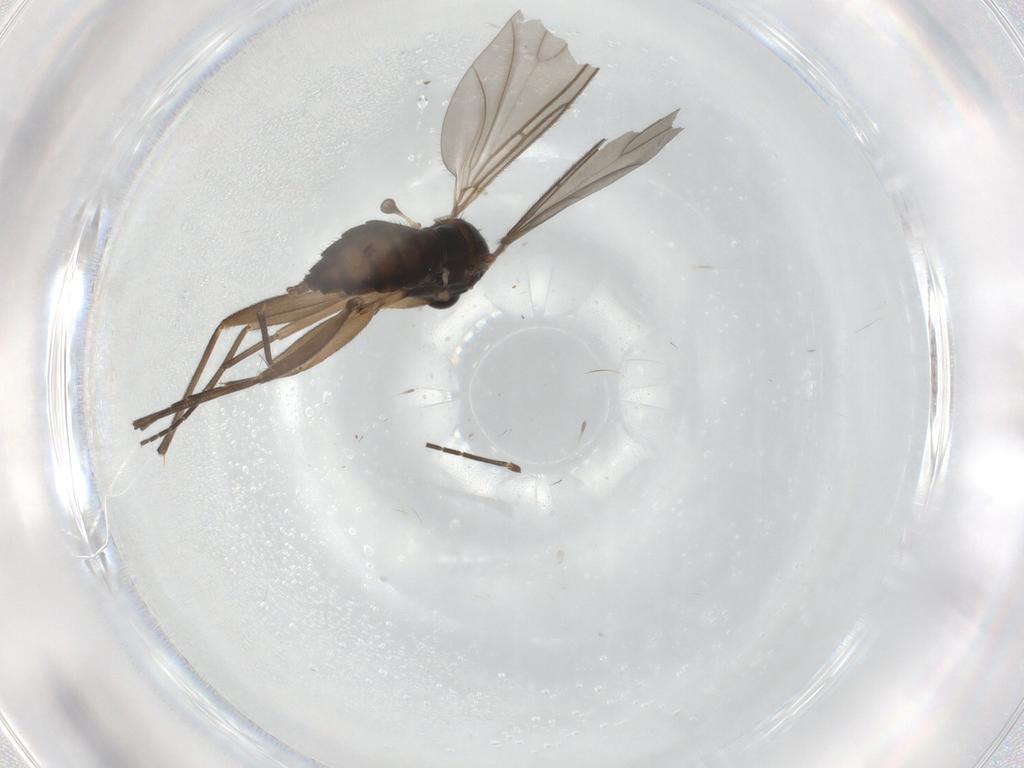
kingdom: Animalia
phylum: Arthropoda
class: Insecta
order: Diptera
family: Sciaridae
